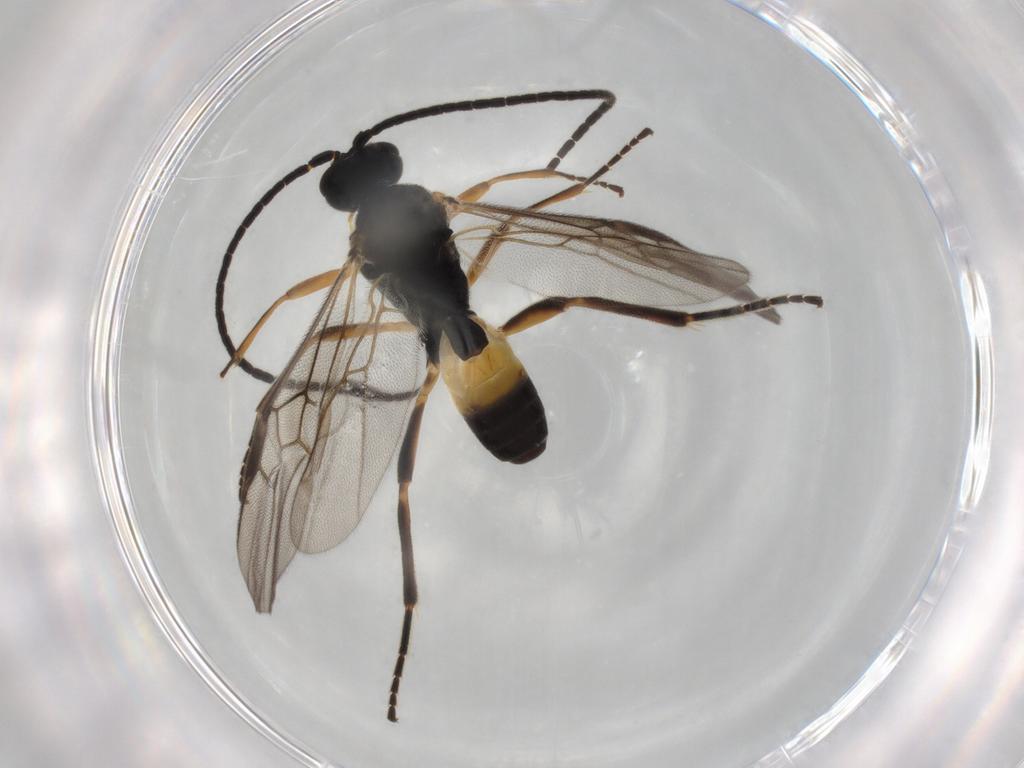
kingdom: Animalia
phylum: Arthropoda
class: Insecta
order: Hymenoptera
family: Braconidae
